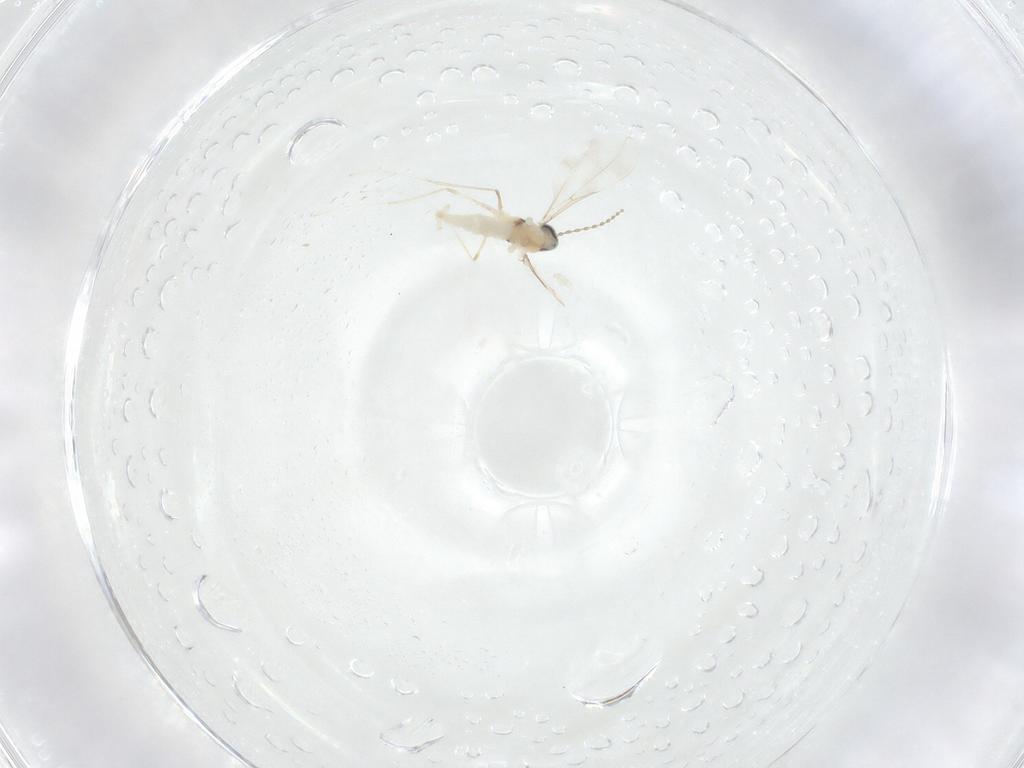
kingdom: Animalia
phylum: Arthropoda
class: Insecta
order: Diptera
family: Cecidomyiidae
